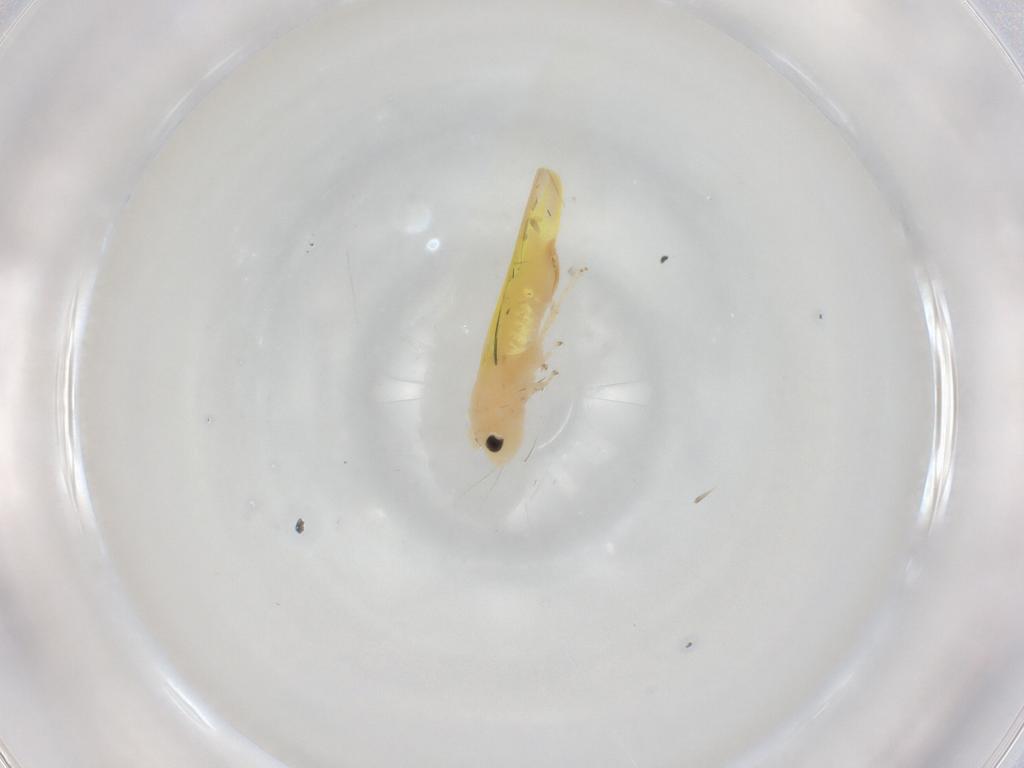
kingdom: Animalia
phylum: Arthropoda
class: Insecta
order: Hemiptera
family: Cicadellidae
